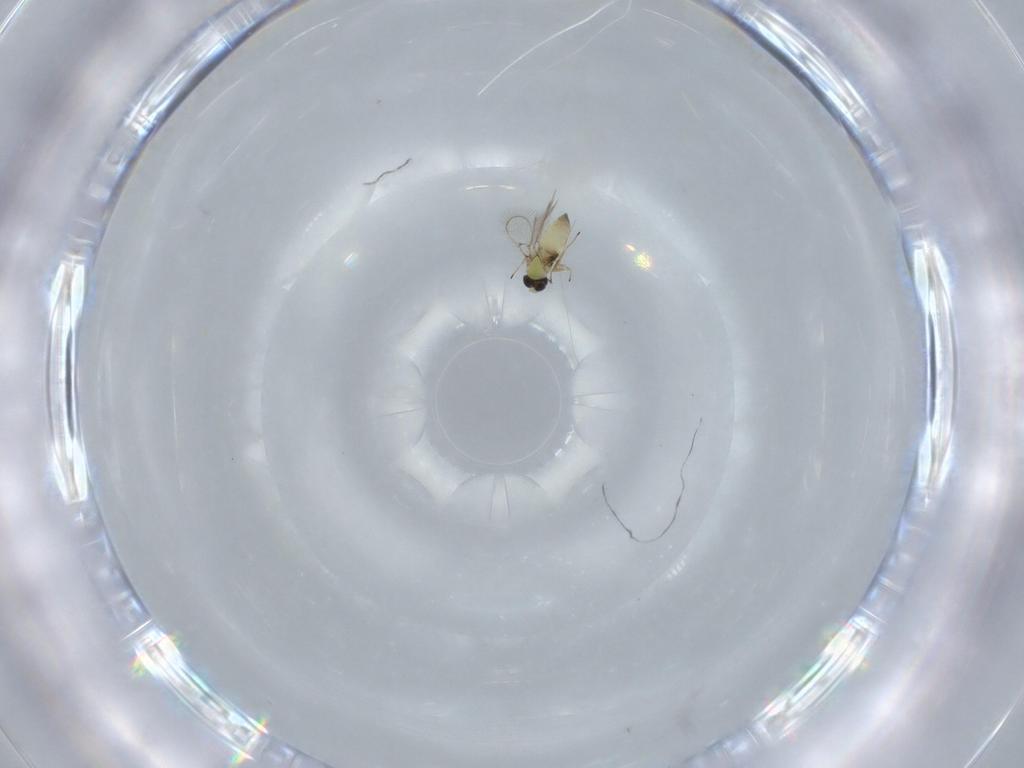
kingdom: Animalia
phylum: Arthropoda
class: Insecta
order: Hymenoptera
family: Trichogrammatidae
